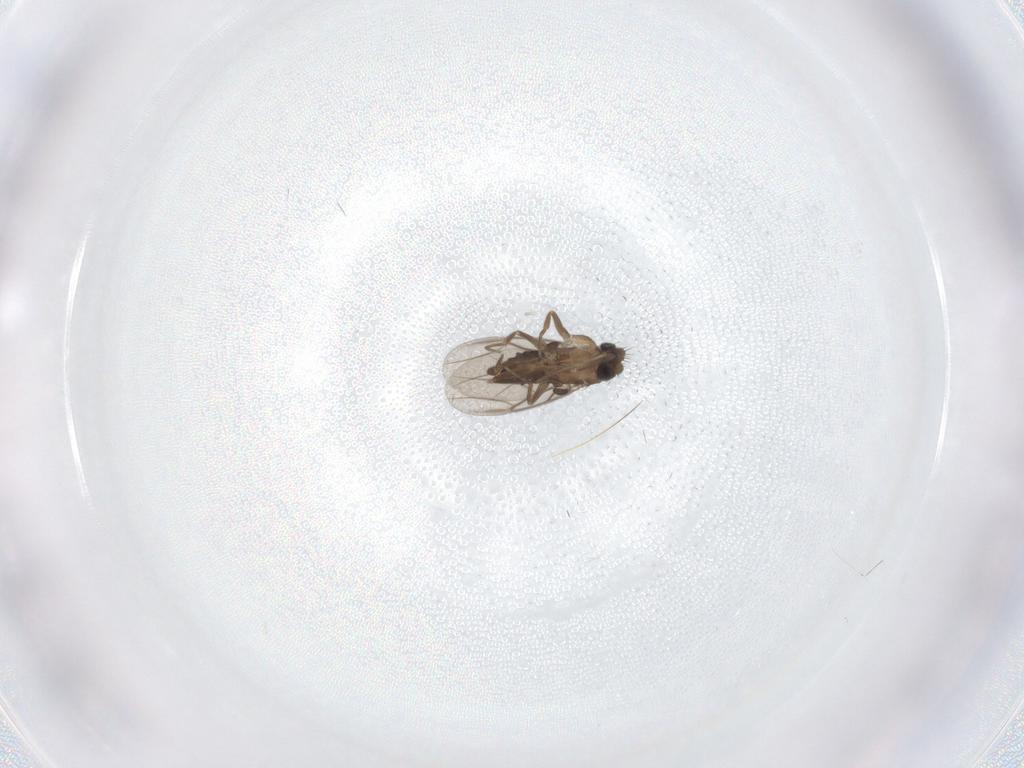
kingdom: Animalia
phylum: Arthropoda
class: Insecta
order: Diptera
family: Phoridae
